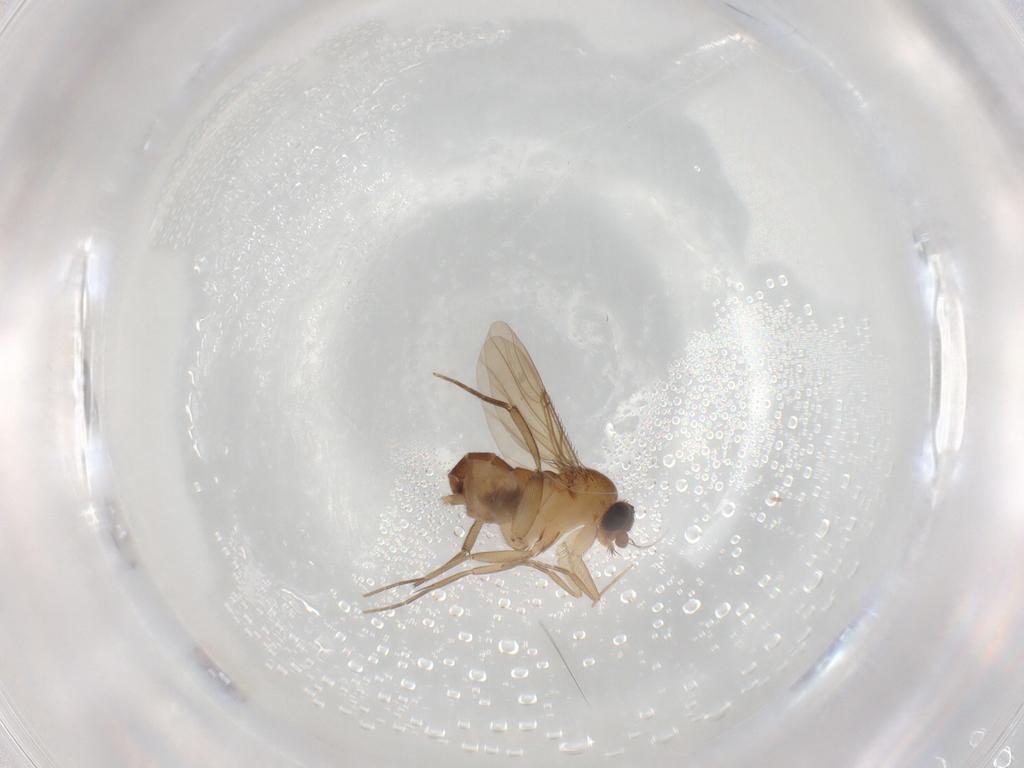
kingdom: Animalia
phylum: Arthropoda
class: Insecta
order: Diptera
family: Phoridae
